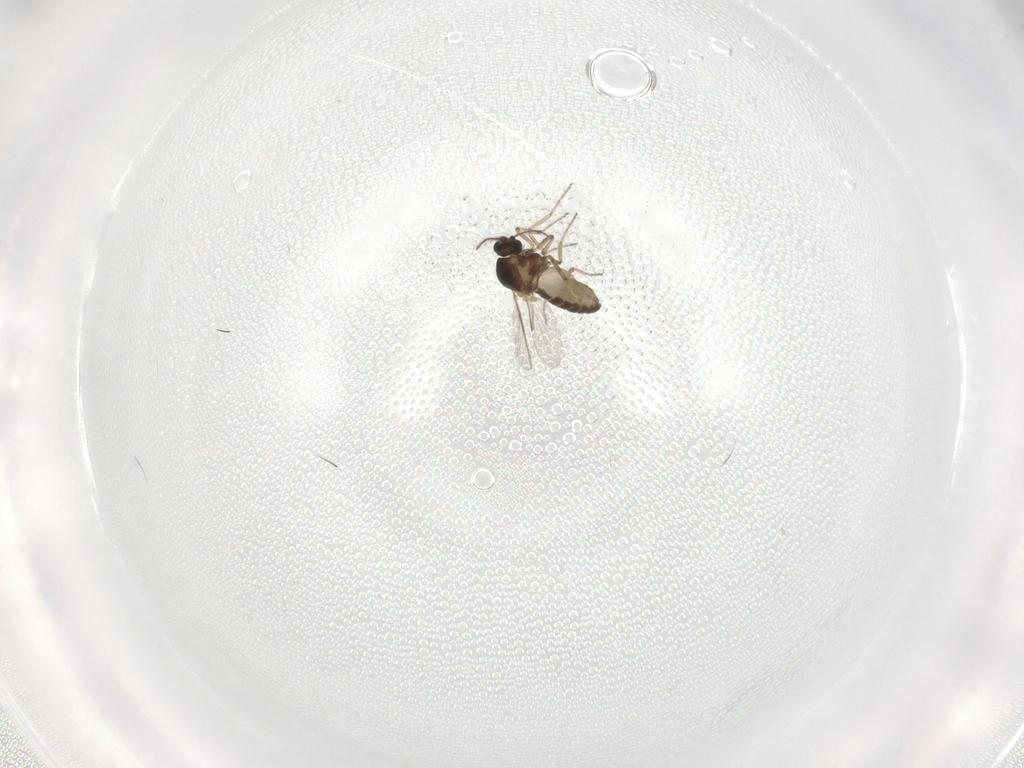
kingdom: Animalia
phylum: Arthropoda
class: Insecta
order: Diptera
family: Ceratopogonidae
